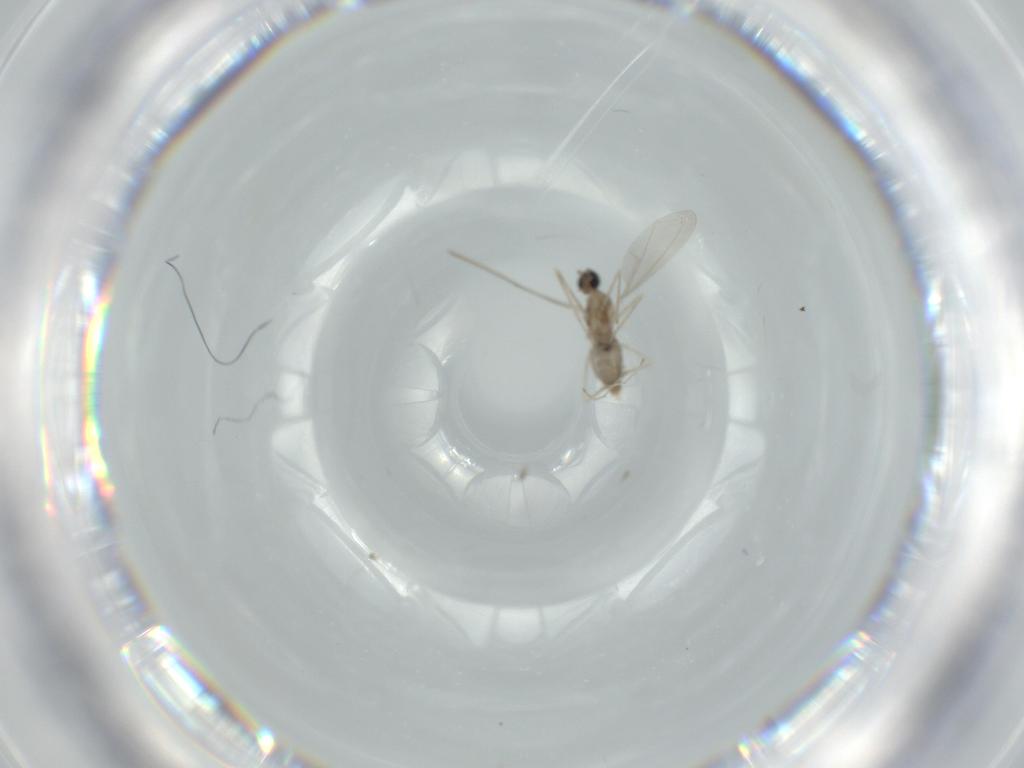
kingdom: Animalia
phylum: Arthropoda
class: Insecta
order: Diptera
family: Cecidomyiidae
